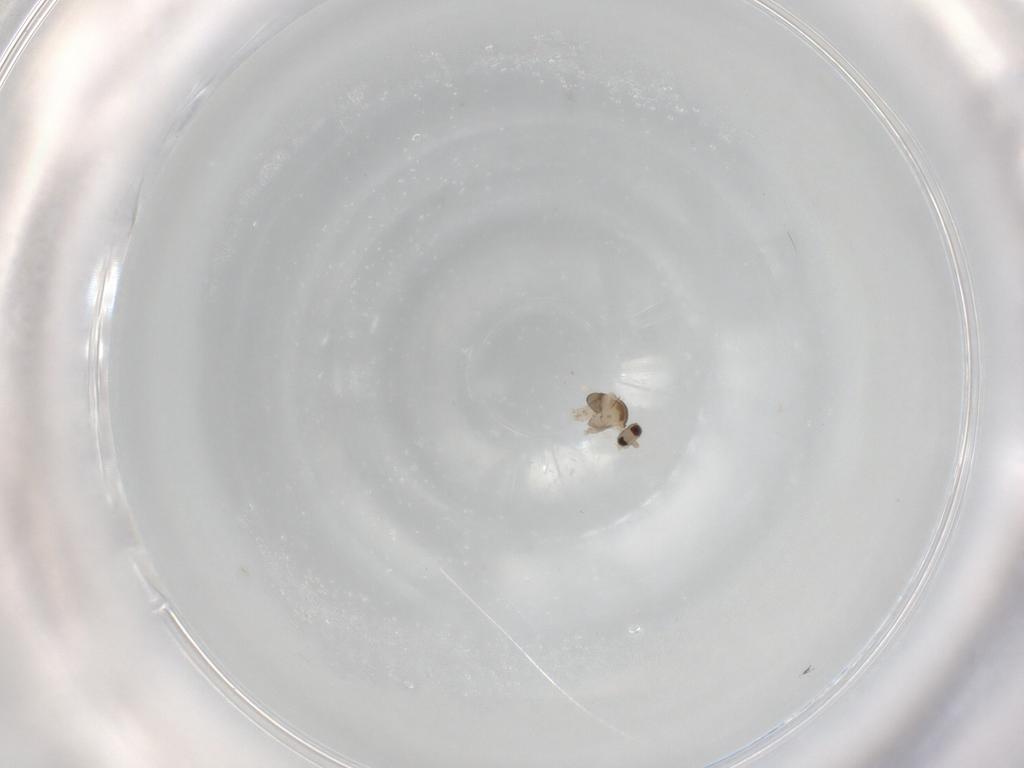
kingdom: Animalia
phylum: Arthropoda
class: Insecta
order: Diptera
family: Cecidomyiidae
